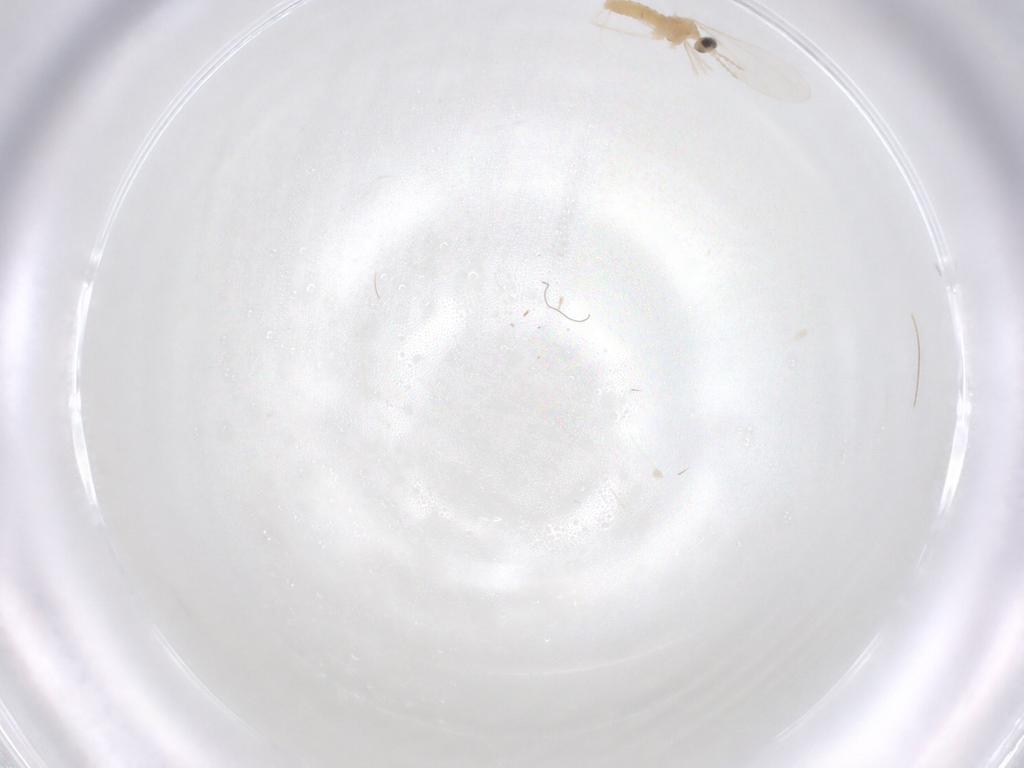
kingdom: Animalia
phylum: Arthropoda
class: Insecta
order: Diptera
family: Cecidomyiidae
